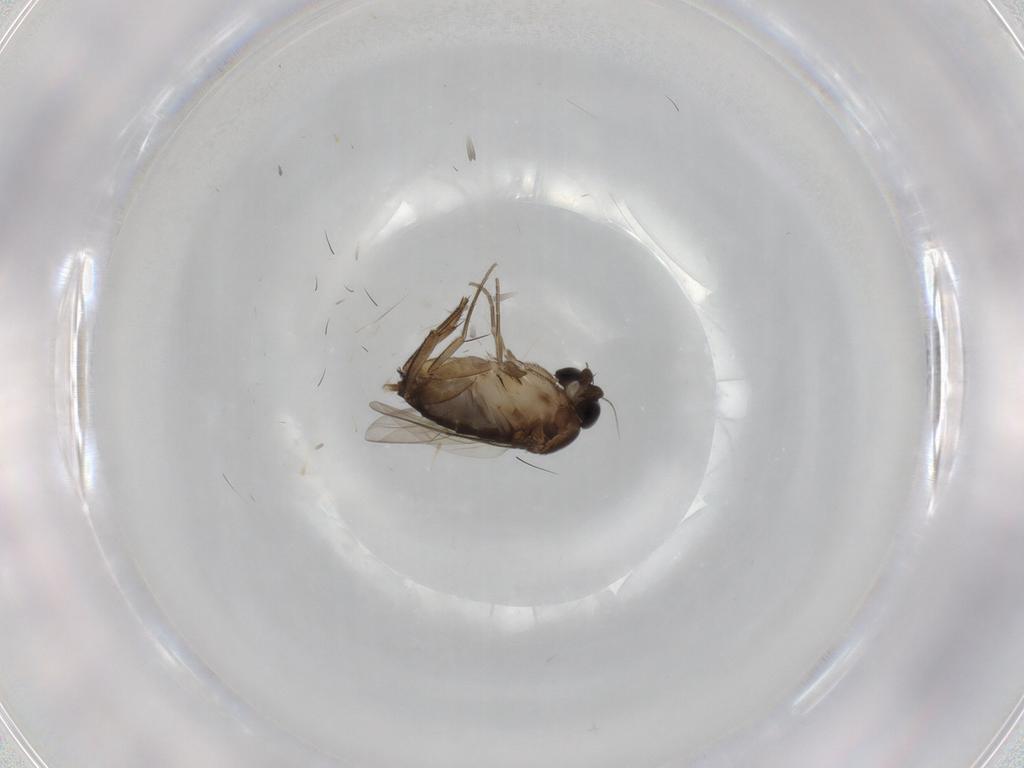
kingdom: Animalia
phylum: Arthropoda
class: Insecta
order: Diptera
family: Phoridae
